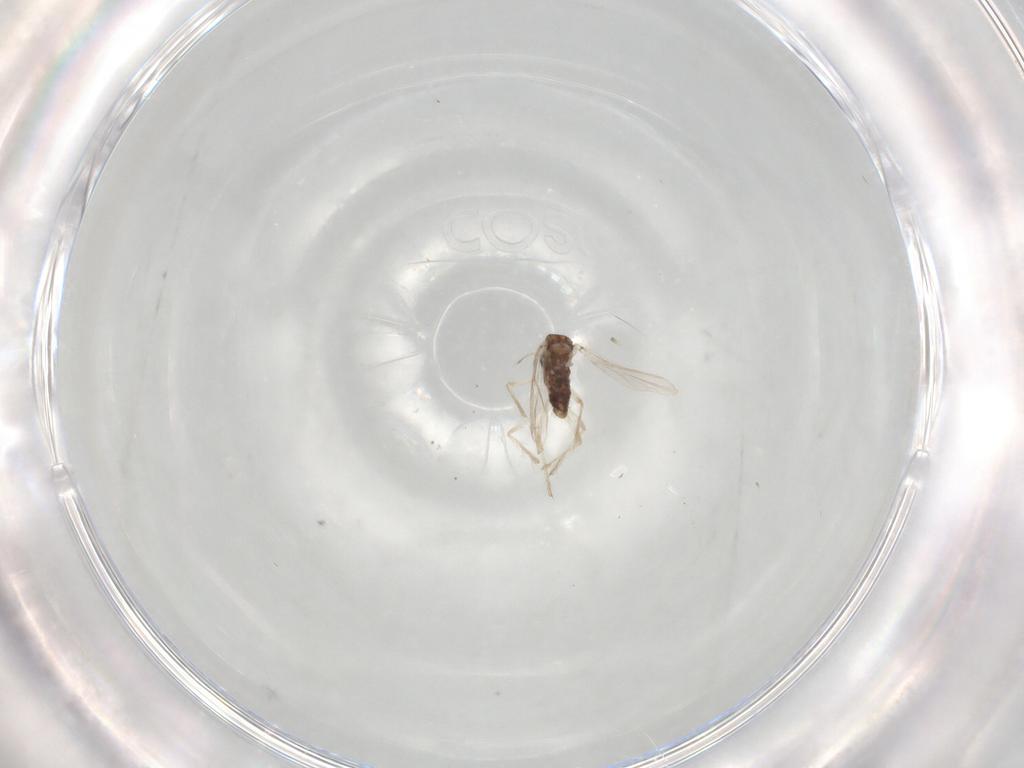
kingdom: Animalia
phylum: Arthropoda
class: Insecta
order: Diptera
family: Chironomidae
